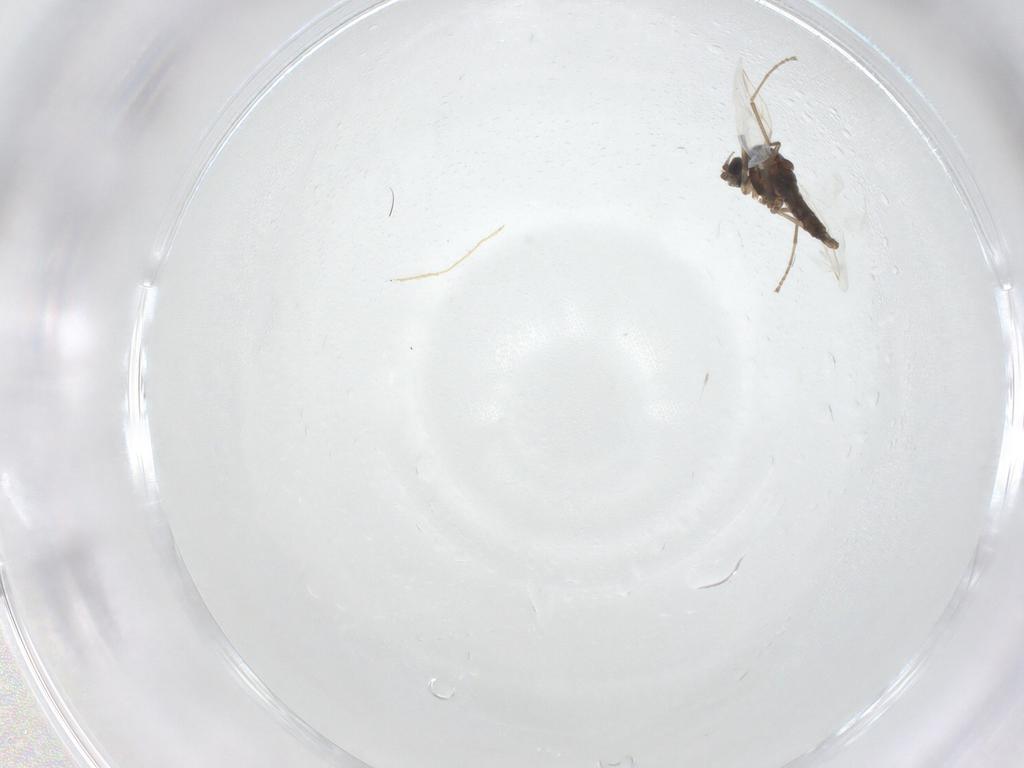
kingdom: Animalia
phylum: Arthropoda
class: Insecta
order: Diptera
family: Cecidomyiidae
